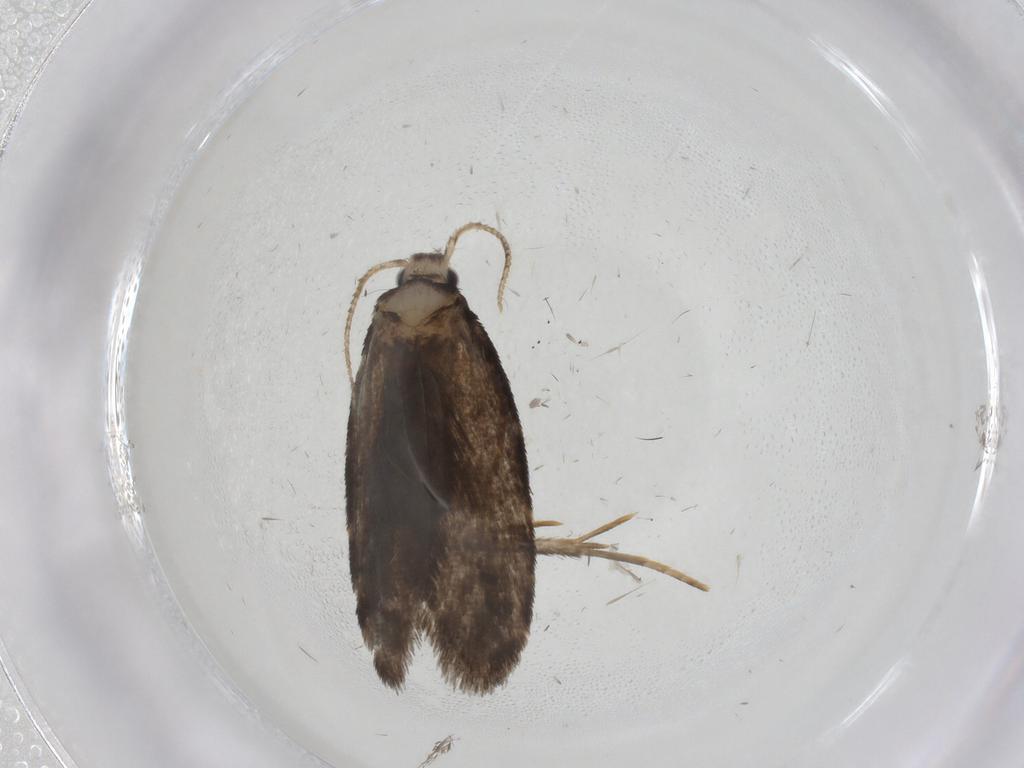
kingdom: Animalia
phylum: Arthropoda
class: Insecta
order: Lepidoptera
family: Psychidae
